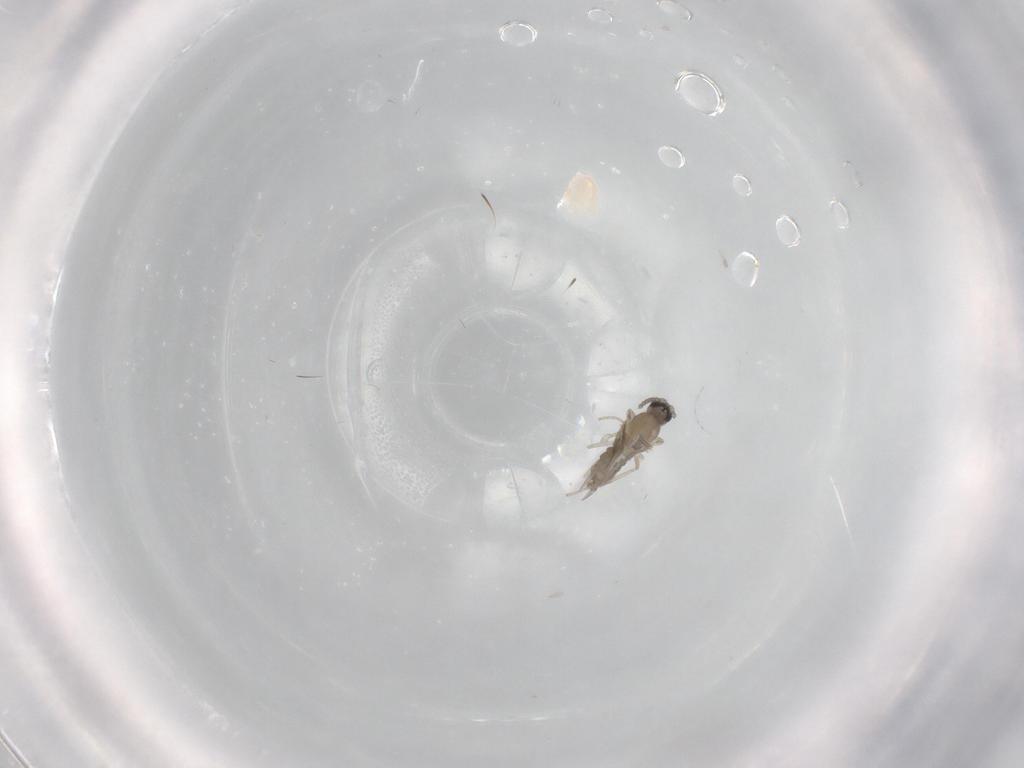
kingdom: Animalia
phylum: Arthropoda
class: Insecta
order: Diptera
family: Cecidomyiidae
